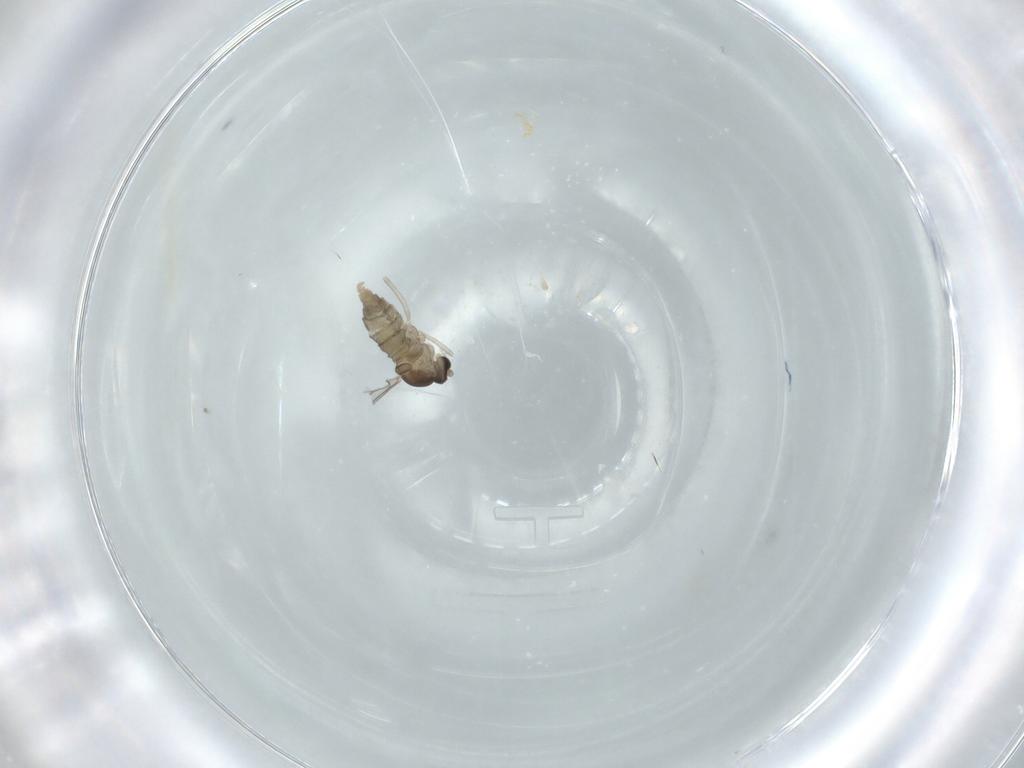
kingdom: Animalia
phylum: Arthropoda
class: Insecta
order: Diptera
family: Cecidomyiidae
